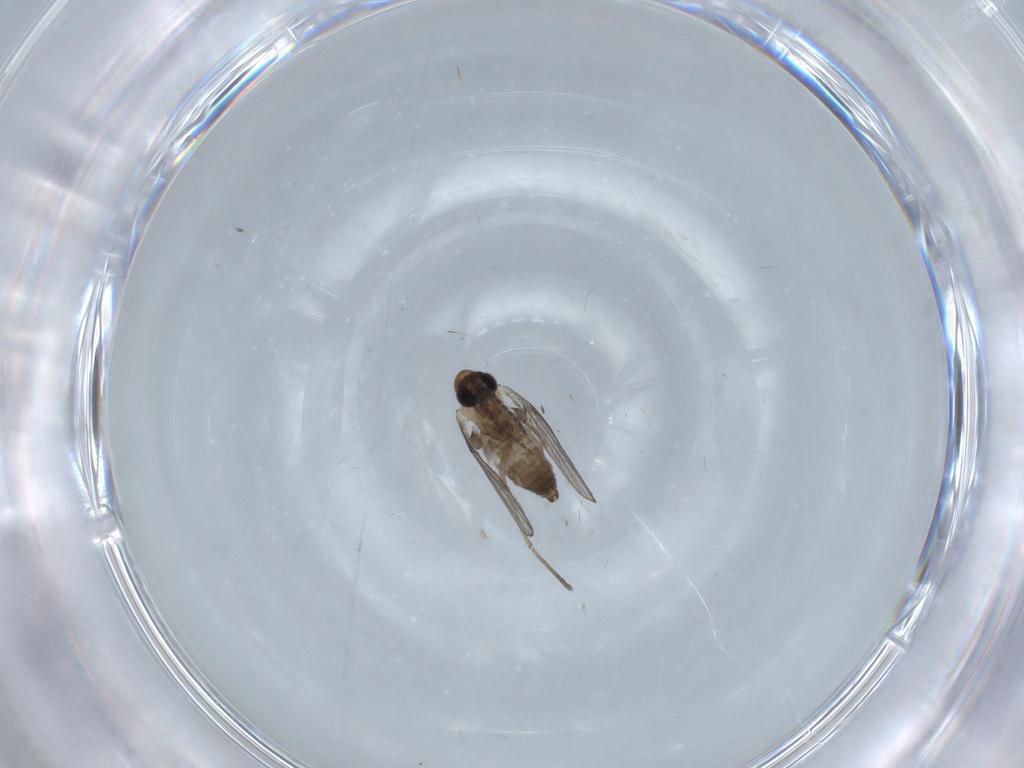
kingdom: Animalia
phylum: Arthropoda
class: Insecta
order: Diptera
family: Chironomidae
